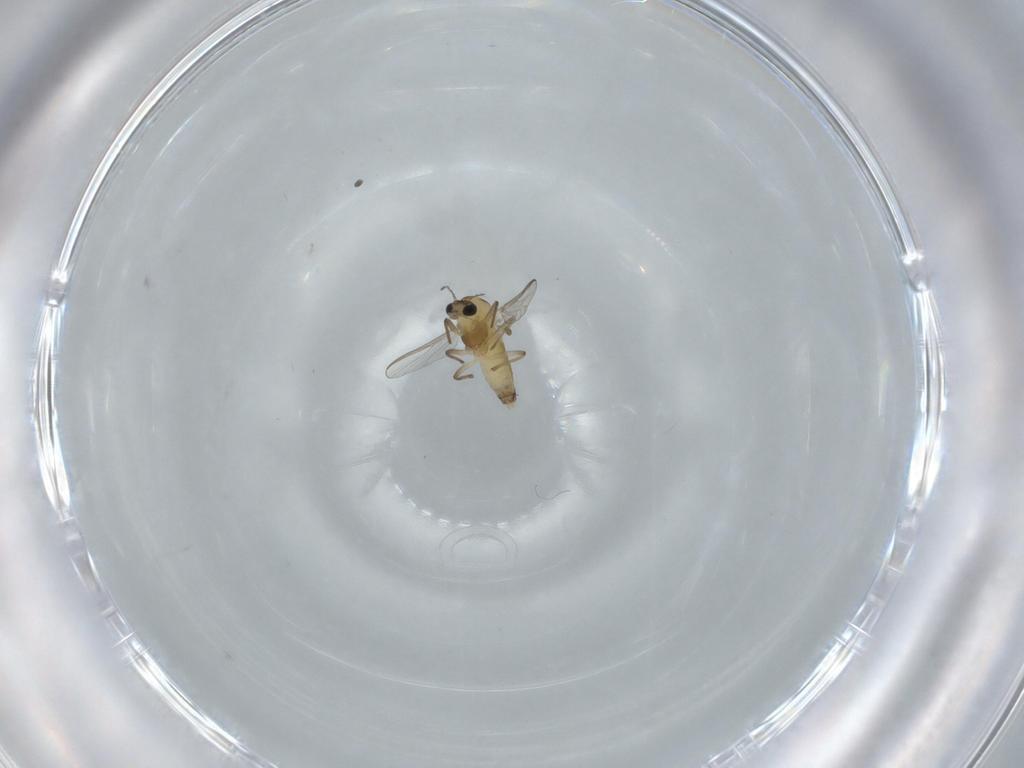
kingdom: Animalia
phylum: Arthropoda
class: Insecta
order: Diptera
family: Chironomidae
